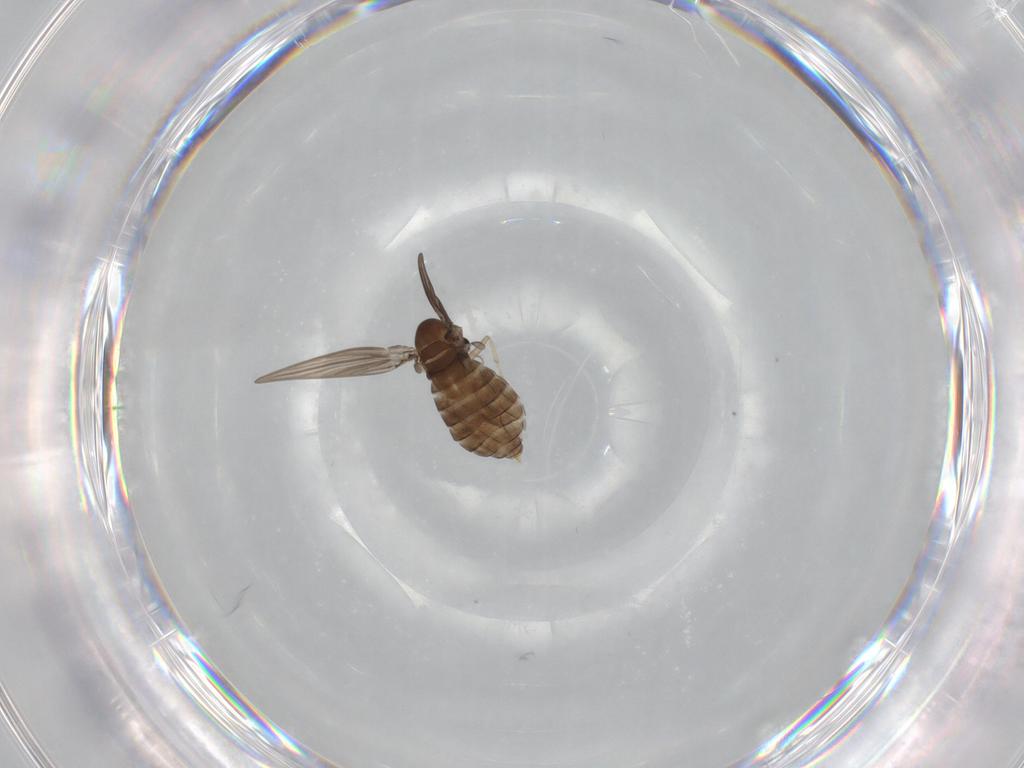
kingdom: Animalia
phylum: Arthropoda
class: Insecta
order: Diptera
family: Psychodidae
